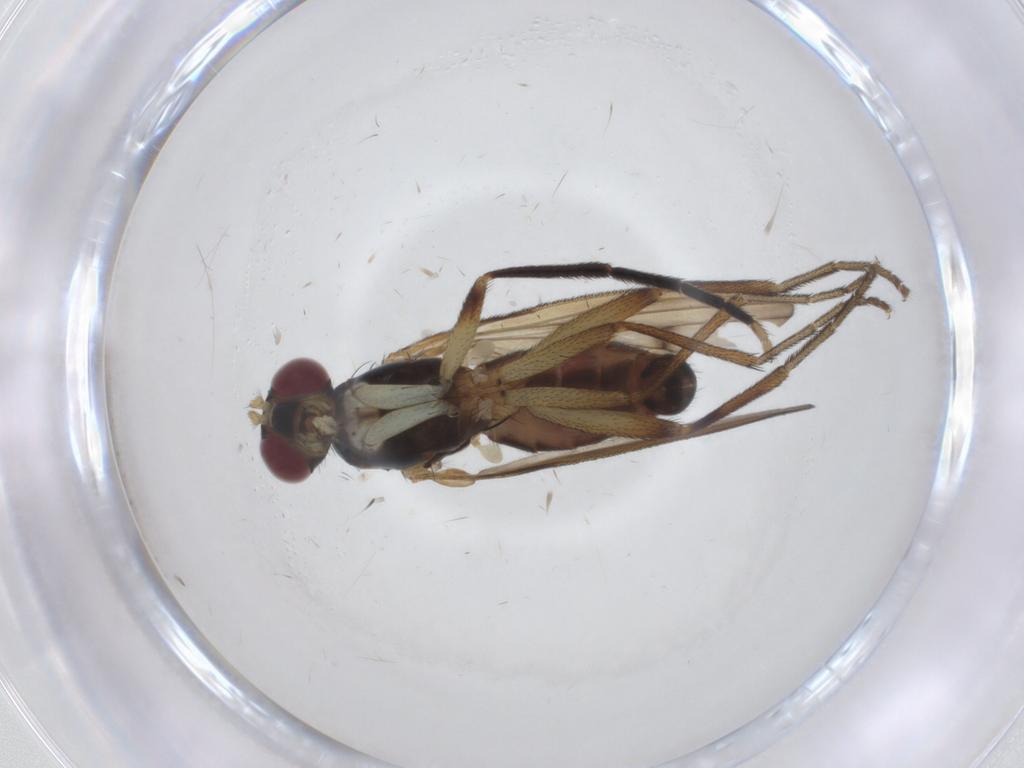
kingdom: Animalia
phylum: Arthropoda
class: Insecta
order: Diptera
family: Sciomyzidae
